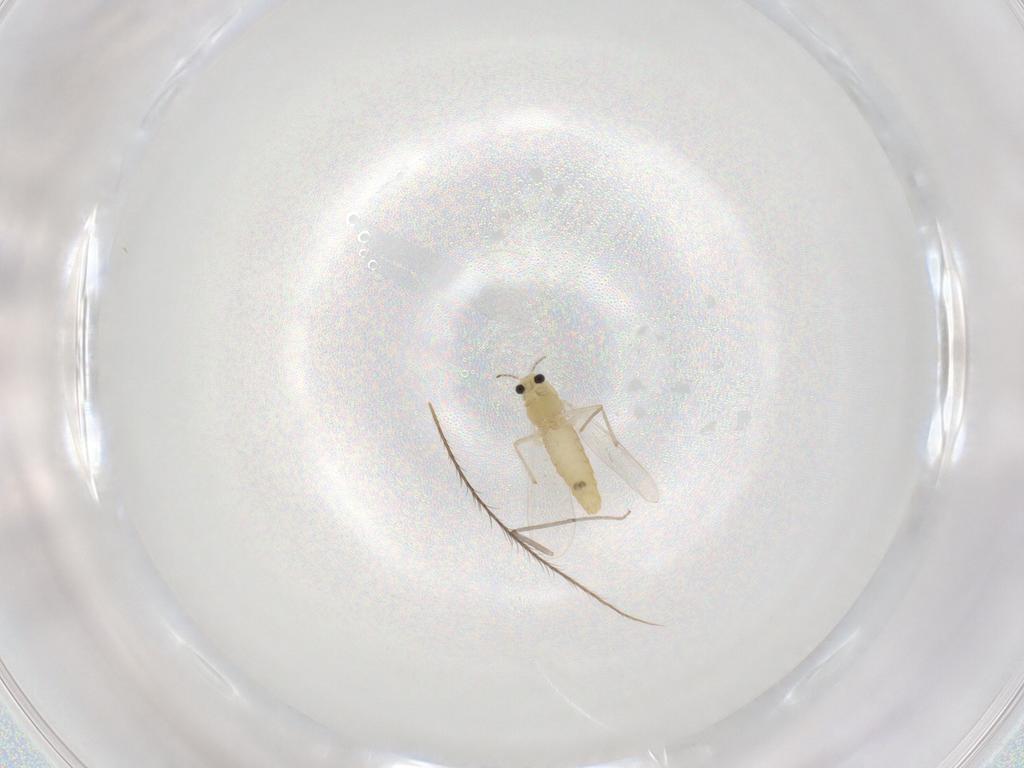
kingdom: Animalia
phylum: Arthropoda
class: Insecta
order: Diptera
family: Chironomidae
